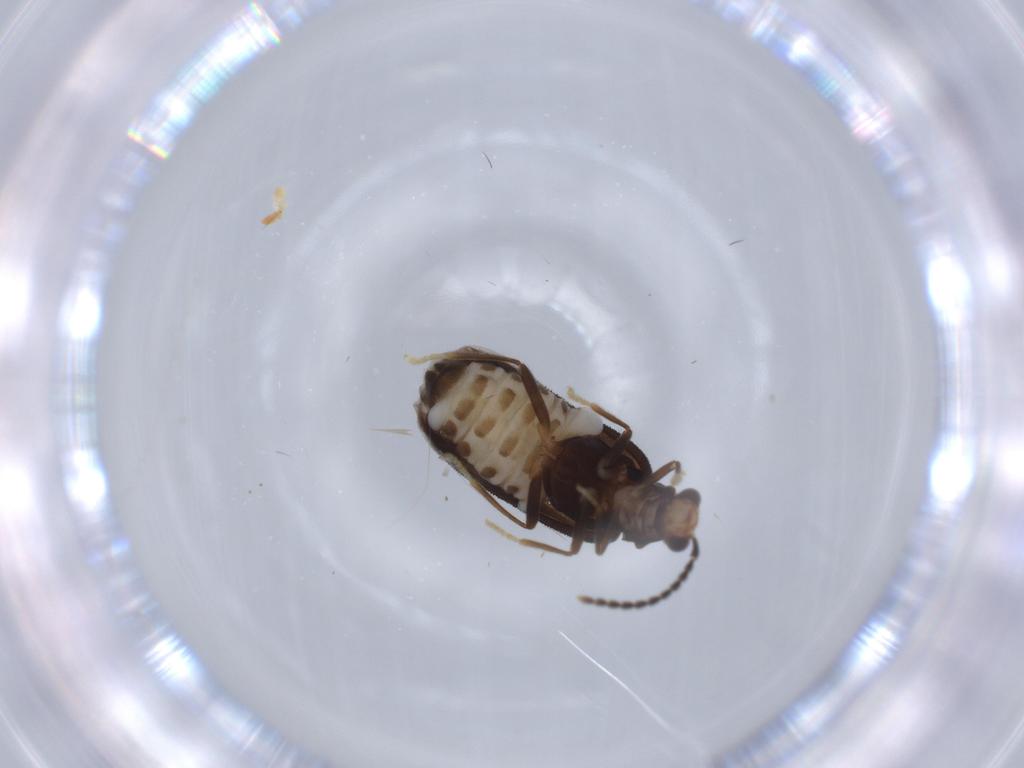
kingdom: Animalia
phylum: Arthropoda
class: Insecta
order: Coleoptera
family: Cantharidae
